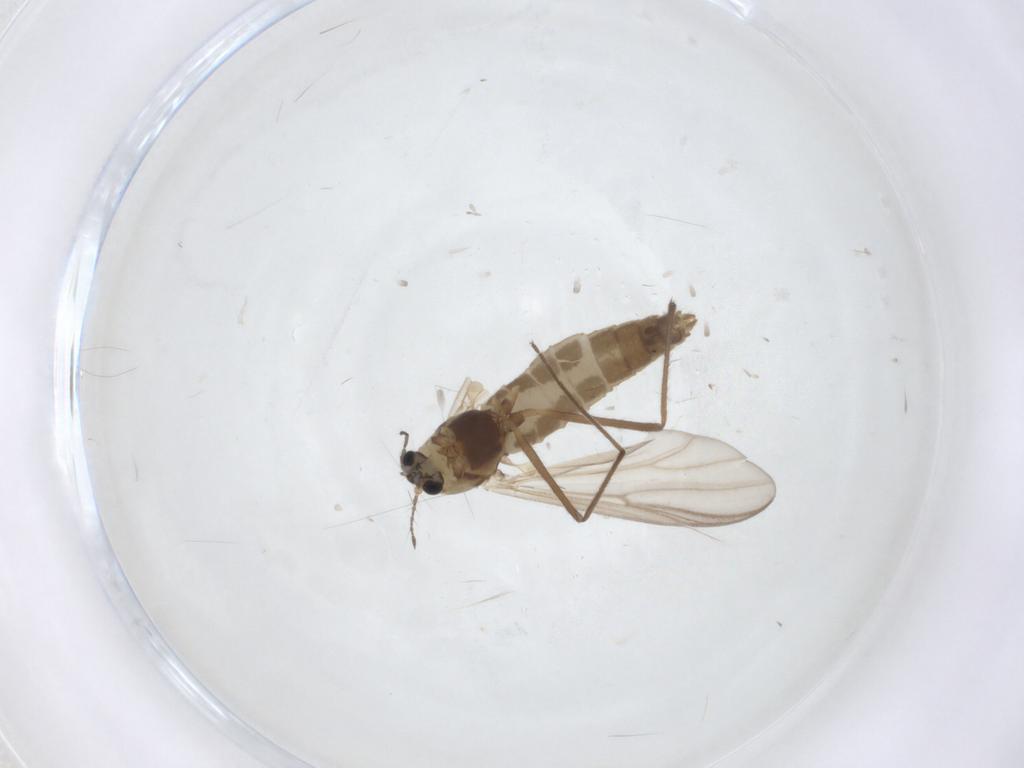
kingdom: Animalia
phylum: Arthropoda
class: Insecta
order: Diptera
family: Chironomidae
